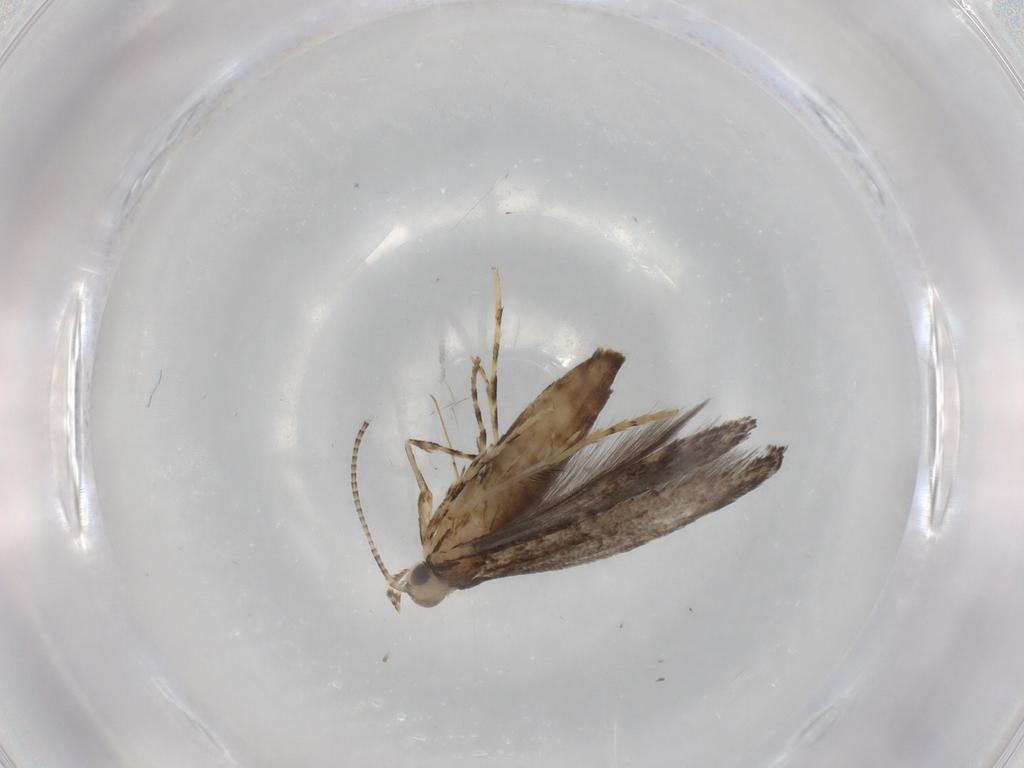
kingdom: Animalia
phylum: Arthropoda
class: Insecta
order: Lepidoptera
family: Gracillariidae
